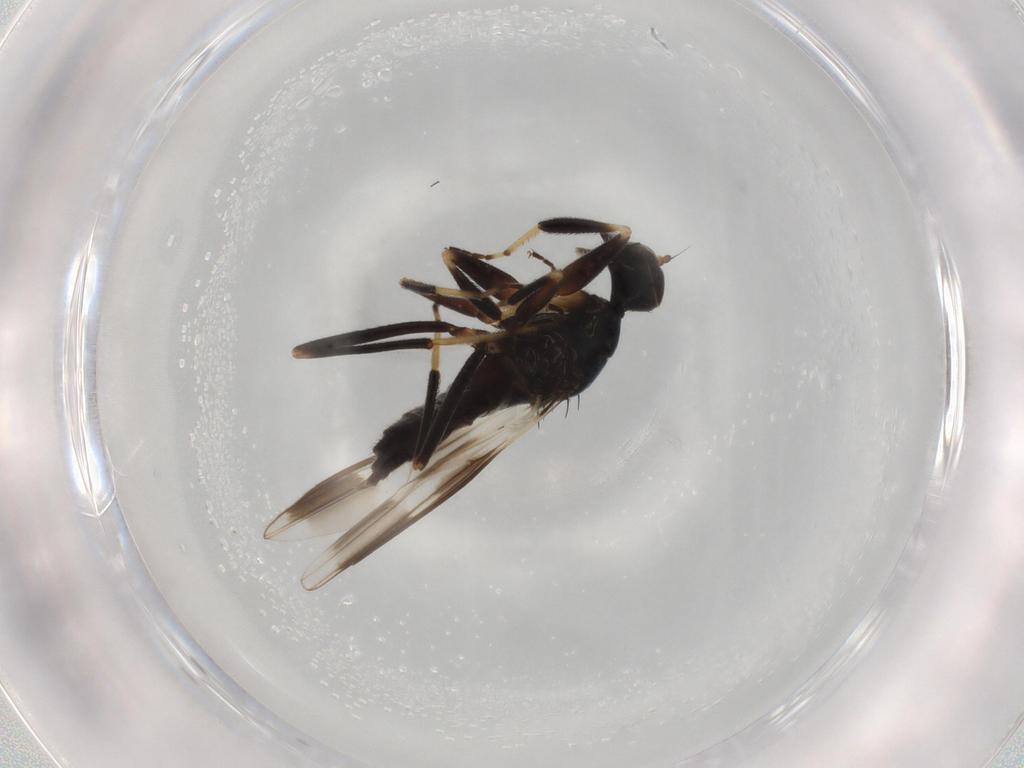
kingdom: Animalia
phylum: Arthropoda
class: Insecta
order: Diptera
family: Hybotidae
